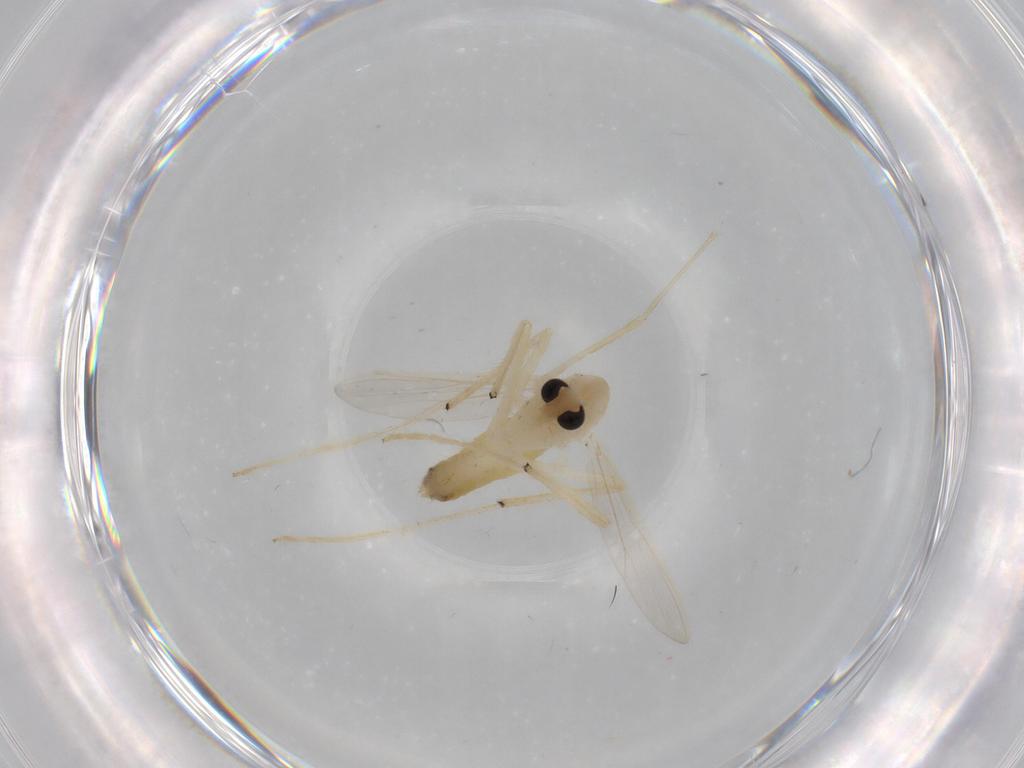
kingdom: Animalia
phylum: Arthropoda
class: Insecta
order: Diptera
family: Chironomidae
